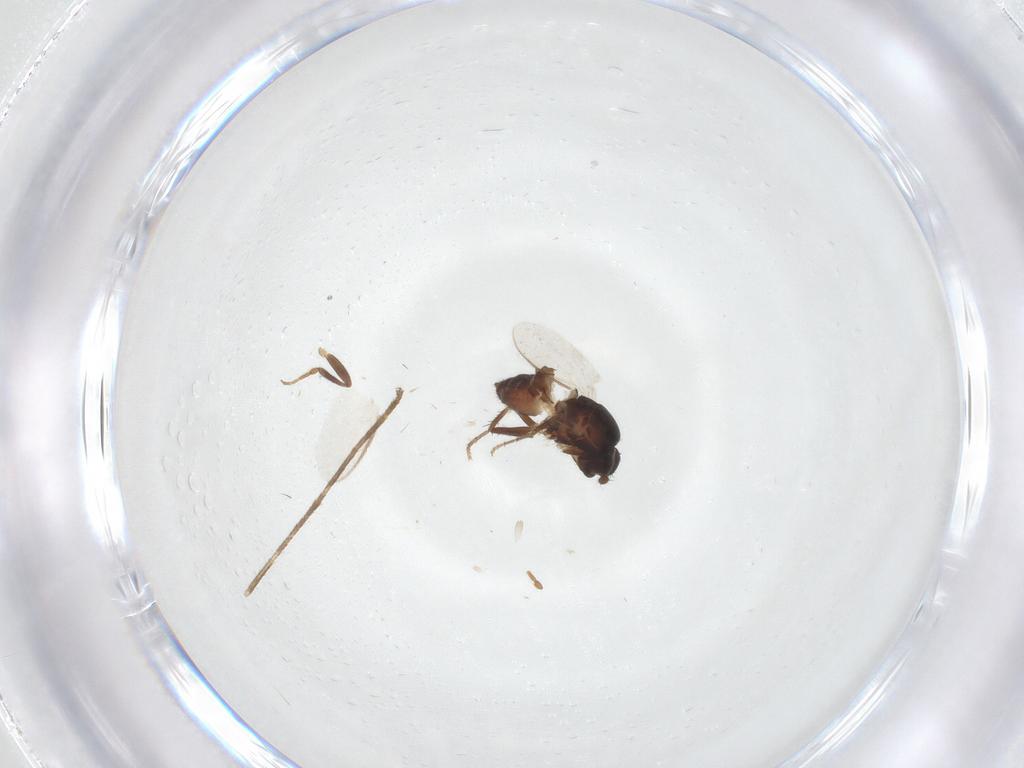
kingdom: Animalia
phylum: Arthropoda
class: Insecta
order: Diptera
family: Sphaeroceridae
